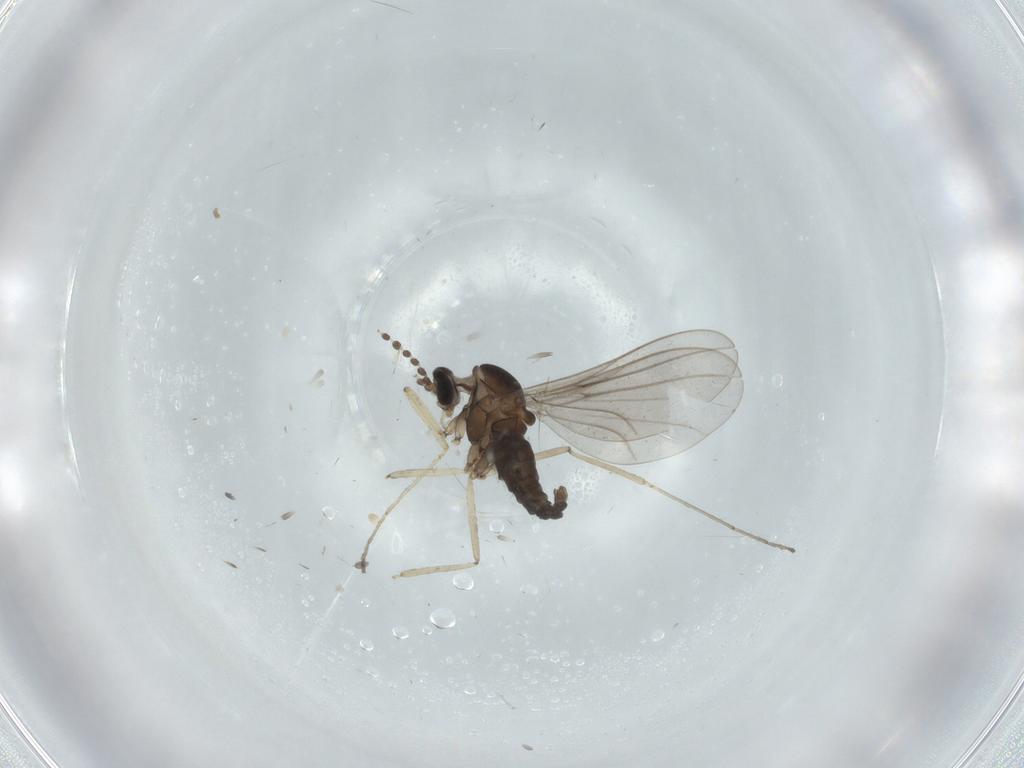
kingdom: Animalia
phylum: Arthropoda
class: Insecta
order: Diptera
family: Cecidomyiidae
